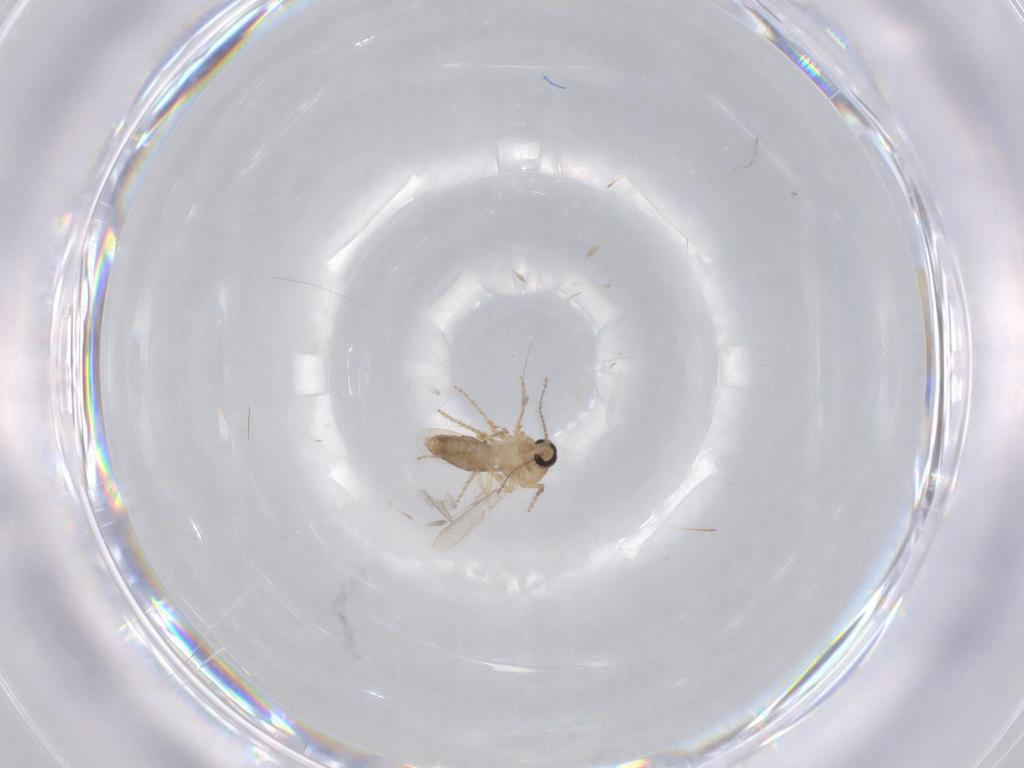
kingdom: Animalia
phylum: Arthropoda
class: Insecta
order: Diptera
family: Ceratopogonidae
